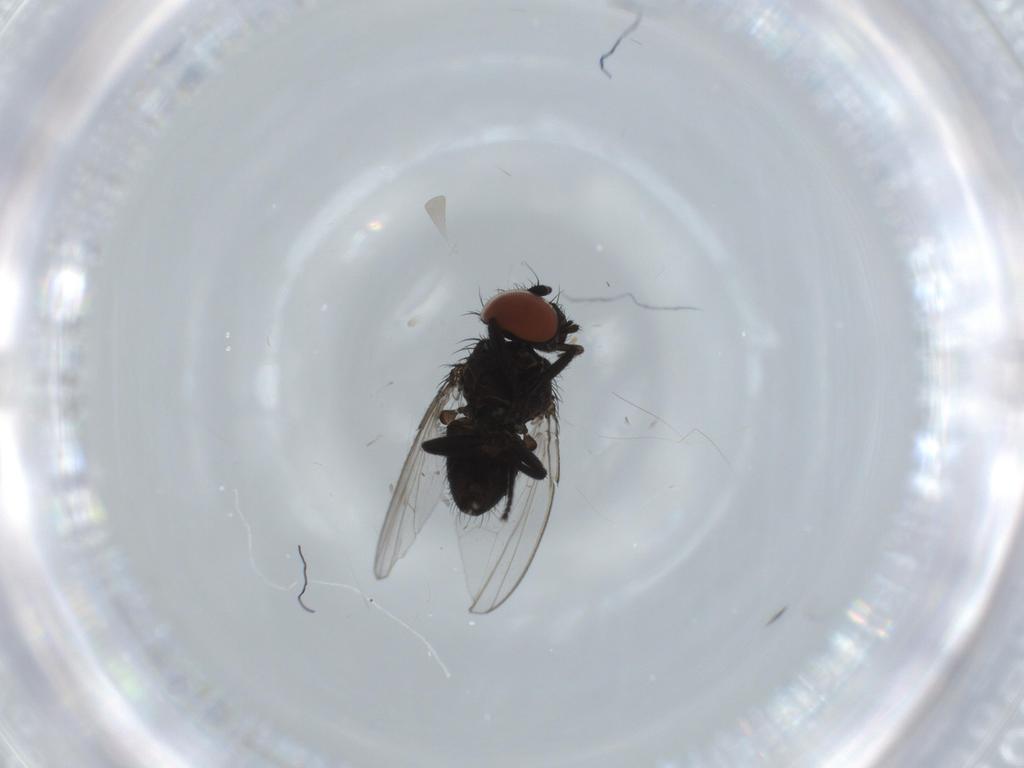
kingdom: Animalia
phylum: Arthropoda
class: Insecta
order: Diptera
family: Milichiidae
